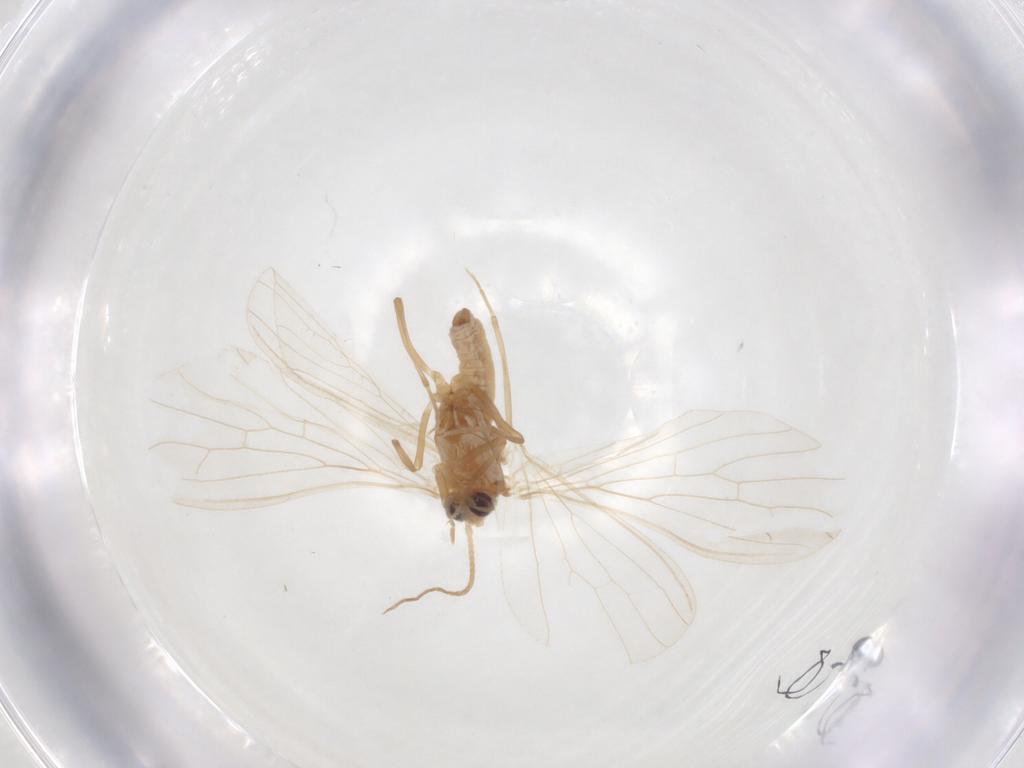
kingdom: Animalia
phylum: Arthropoda
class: Insecta
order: Neuroptera
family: Coniopterygidae
